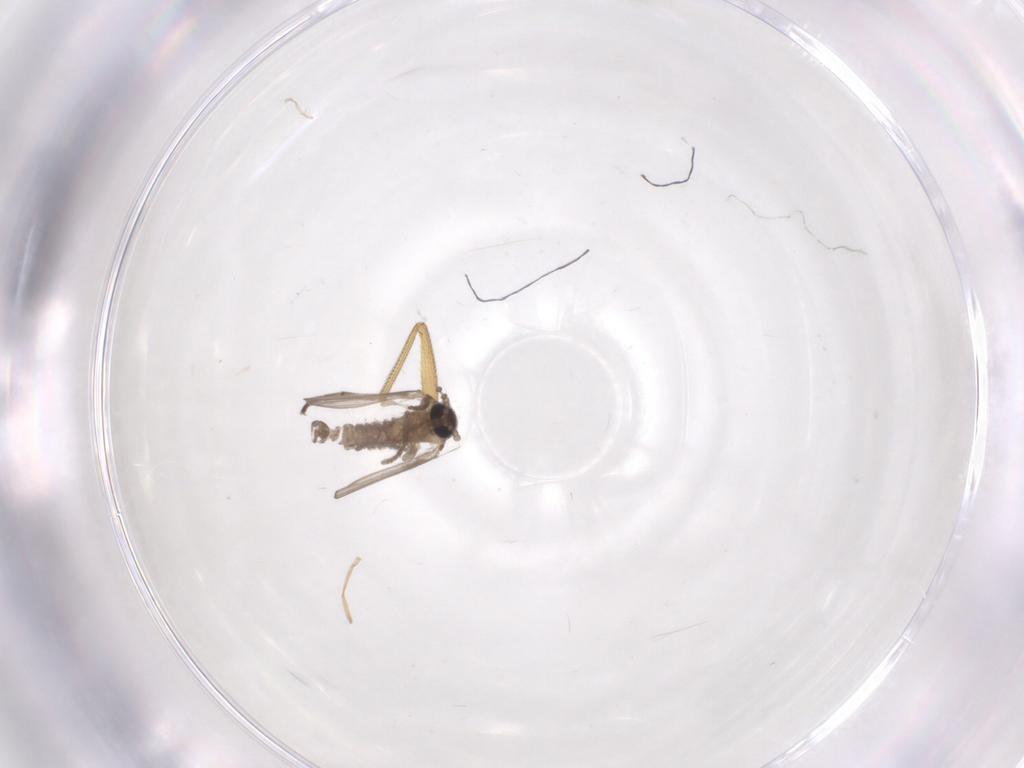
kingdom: Animalia
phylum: Arthropoda
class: Insecta
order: Diptera
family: Psychodidae
